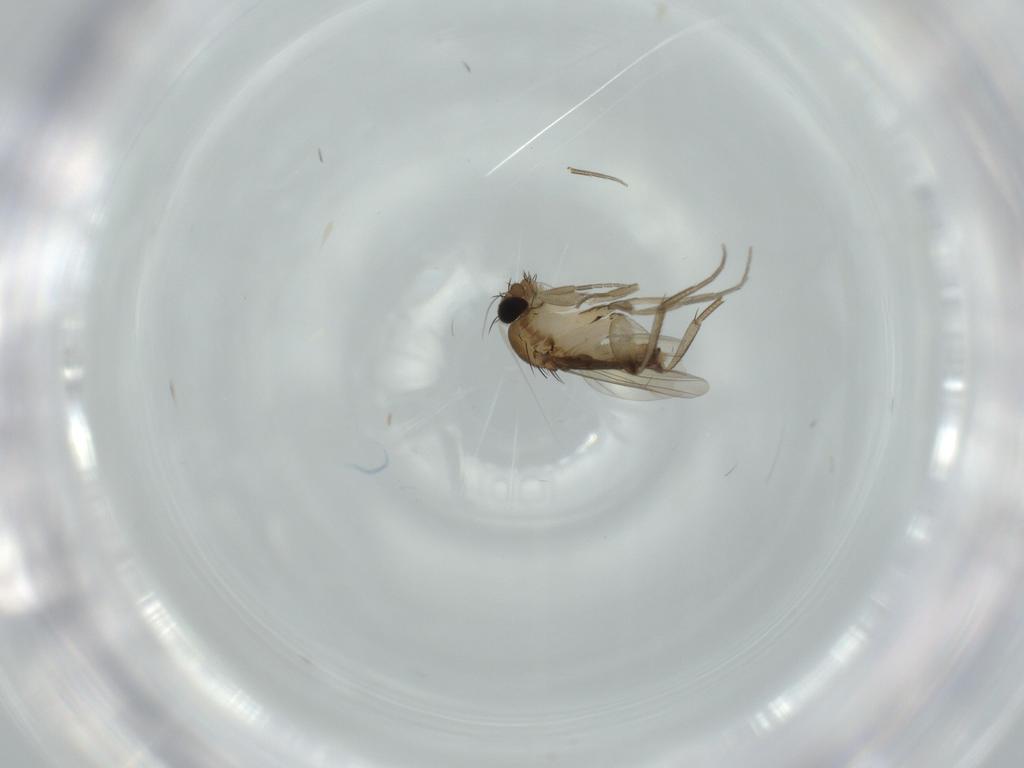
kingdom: Animalia
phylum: Arthropoda
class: Insecta
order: Diptera
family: Phoridae
